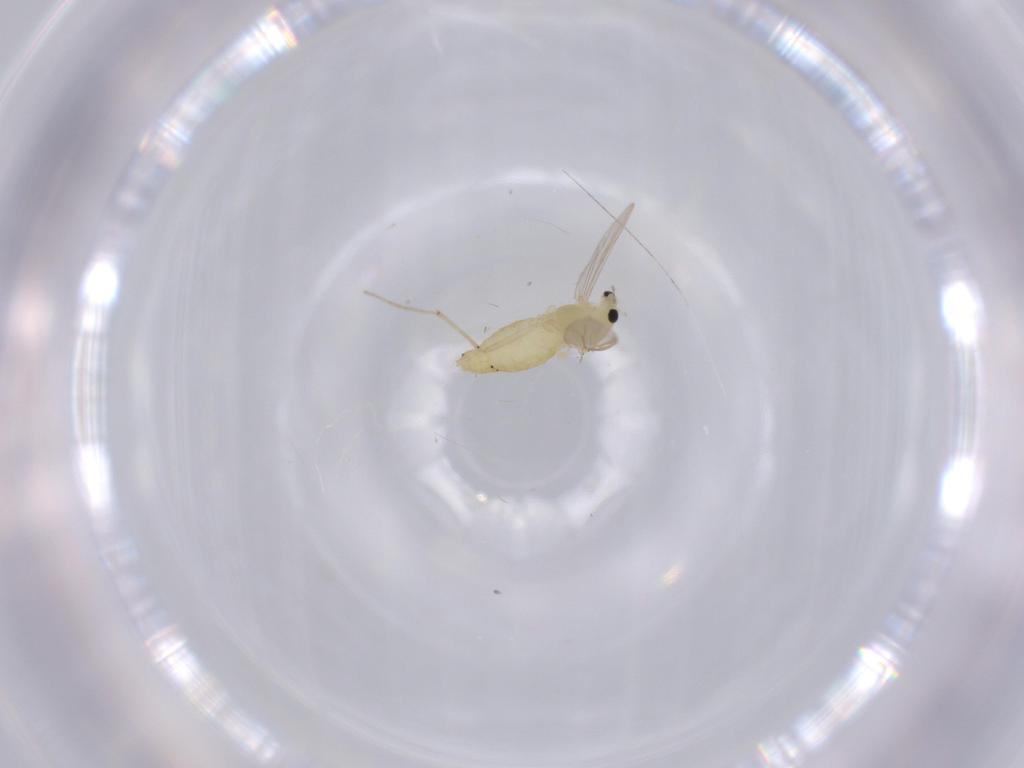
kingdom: Animalia
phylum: Arthropoda
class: Insecta
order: Diptera
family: Chironomidae
